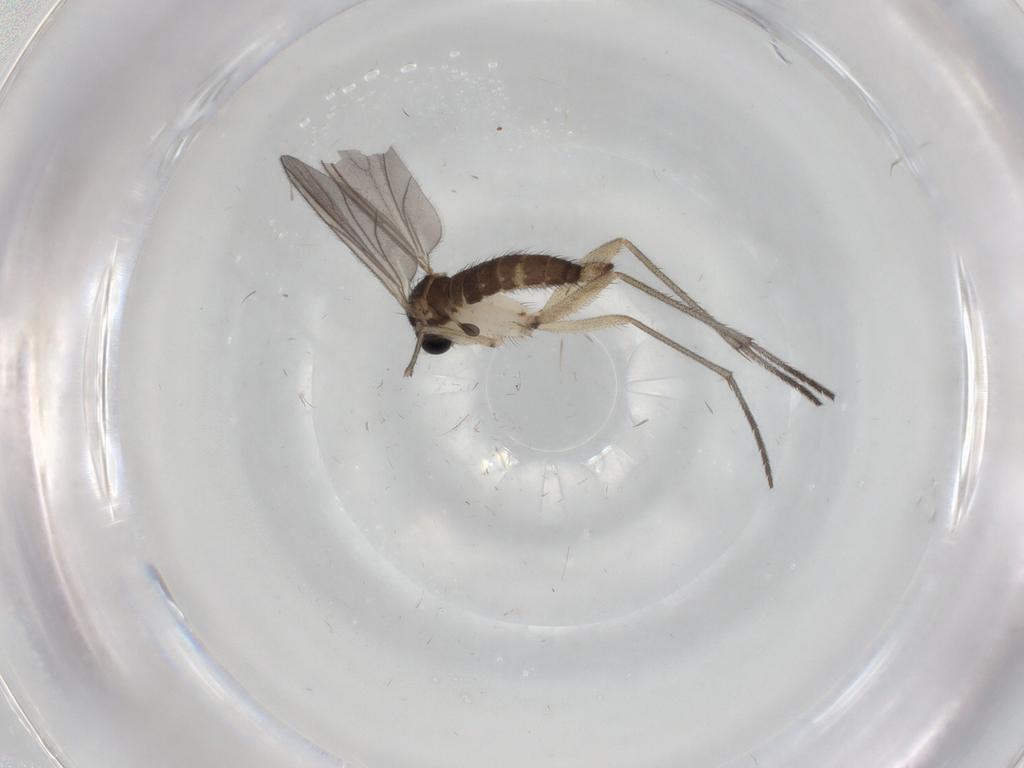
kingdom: Animalia
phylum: Arthropoda
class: Insecta
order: Diptera
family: Sciaridae
